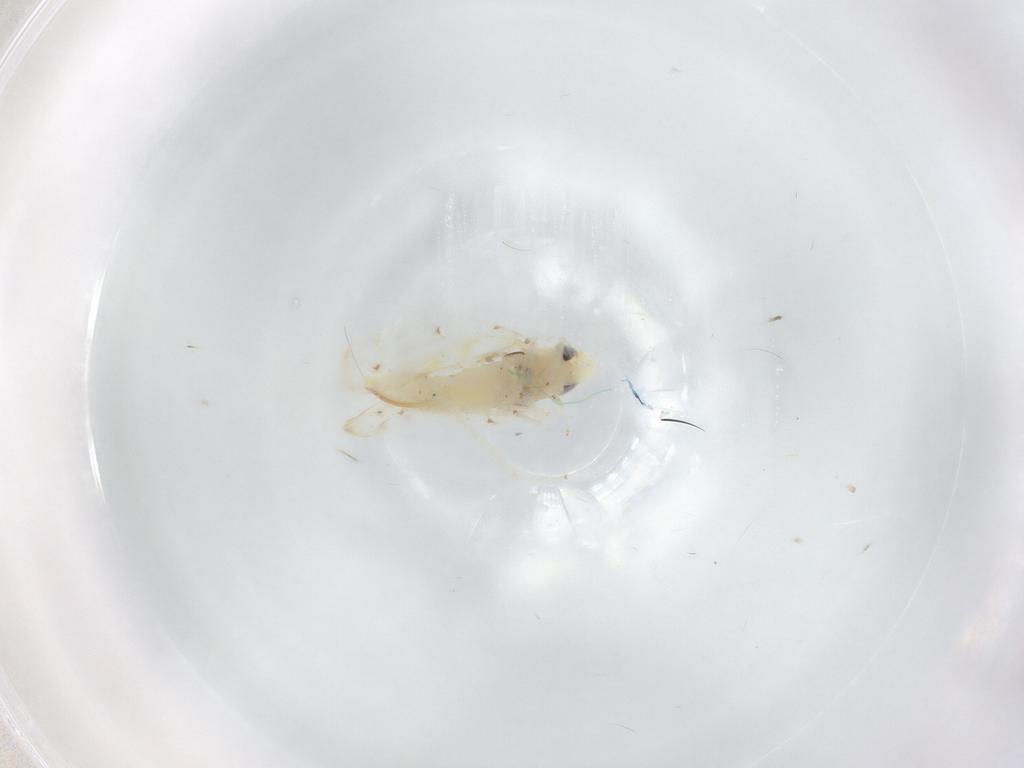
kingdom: Animalia
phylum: Arthropoda
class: Insecta
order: Hemiptera
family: Cicadellidae
